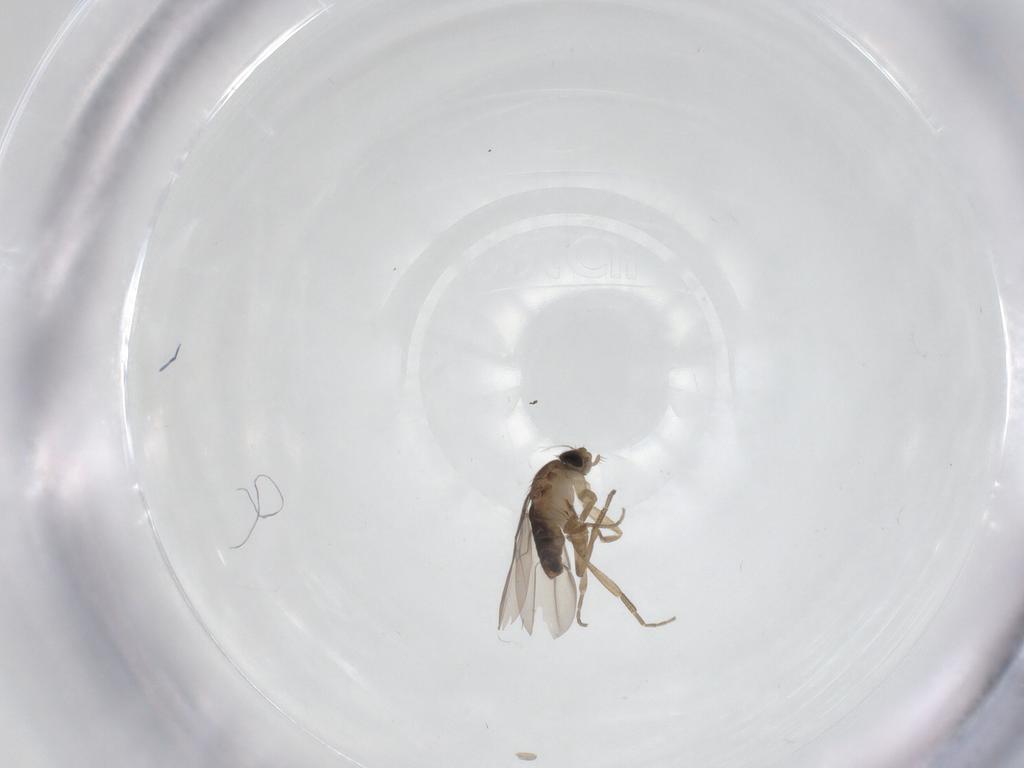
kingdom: Animalia
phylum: Arthropoda
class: Insecta
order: Diptera
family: Phoridae
